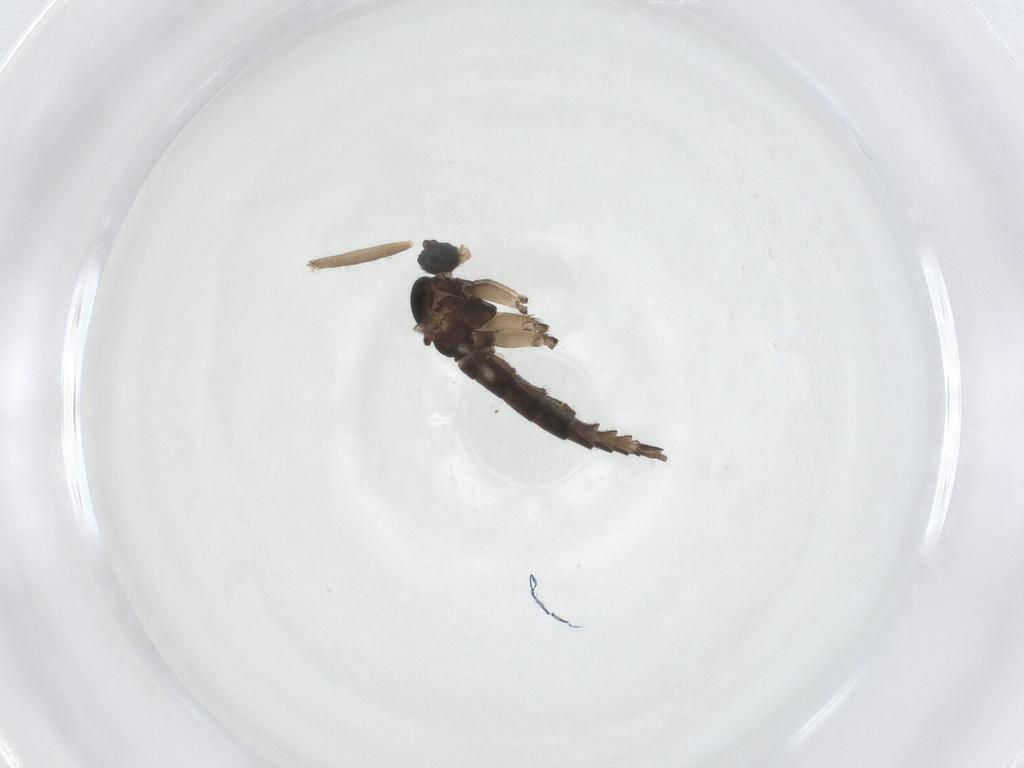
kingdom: Animalia
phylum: Arthropoda
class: Insecta
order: Diptera
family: Sciaridae
